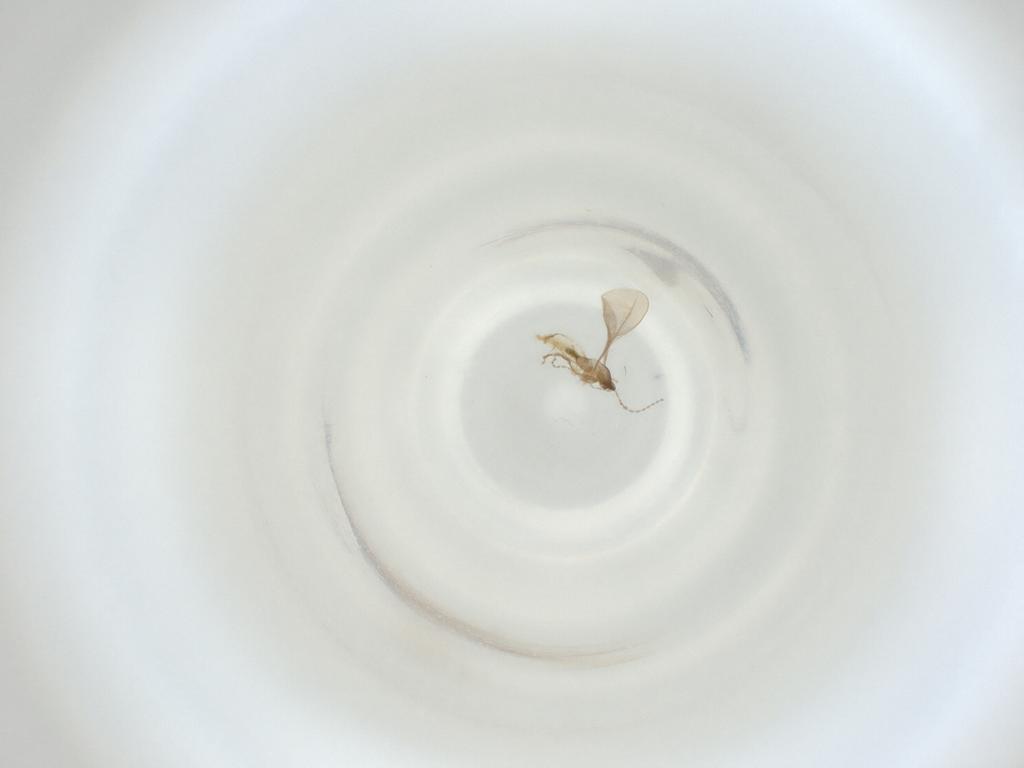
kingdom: Animalia
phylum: Arthropoda
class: Insecta
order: Diptera
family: Cecidomyiidae
